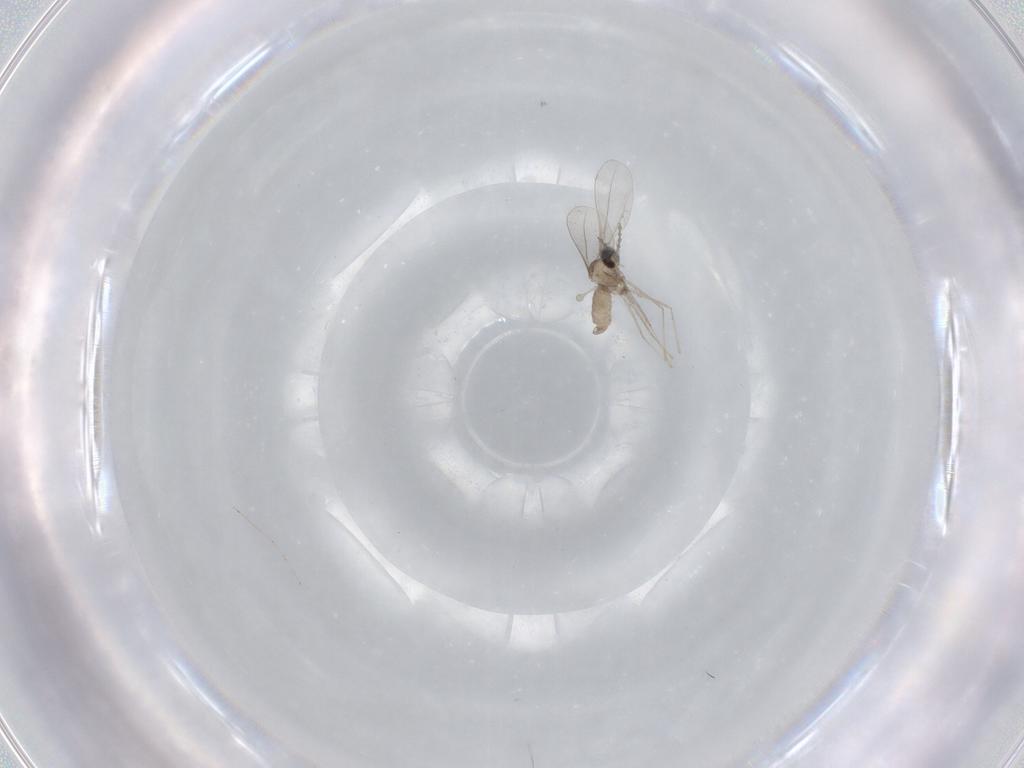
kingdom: Animalia
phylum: Arthropoda
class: Insecta
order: Diptera
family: Cecidomyiidae
